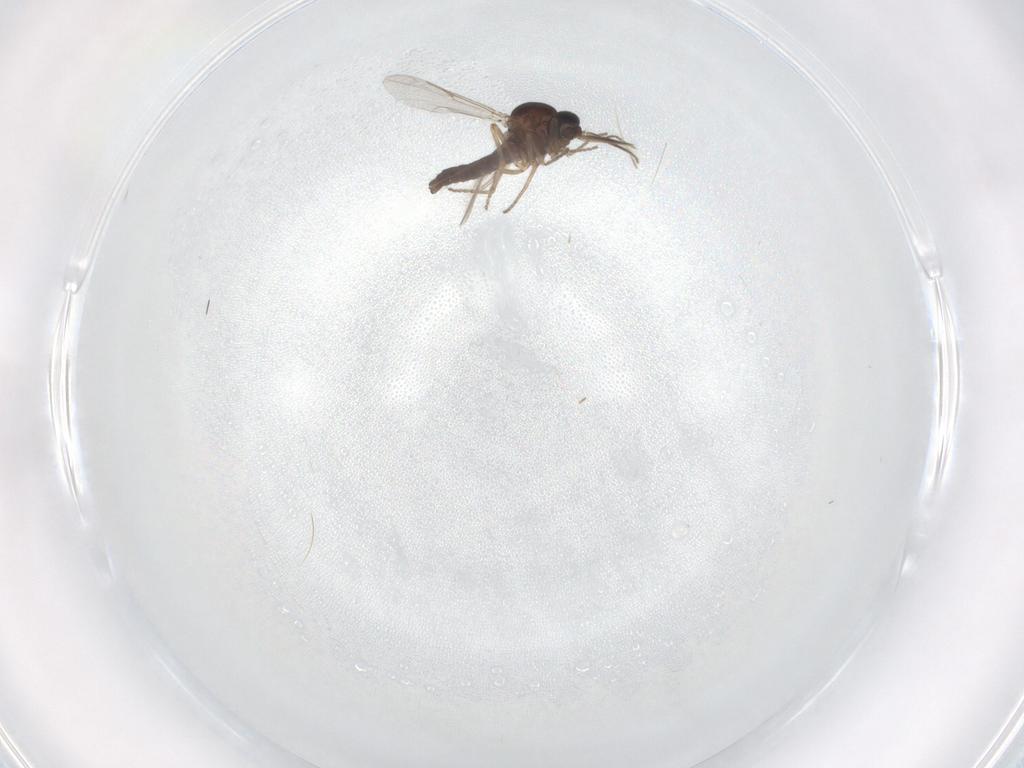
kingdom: Animalia
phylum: Arthropoda
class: Insecta
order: Diptera
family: Ceratopogonidae
